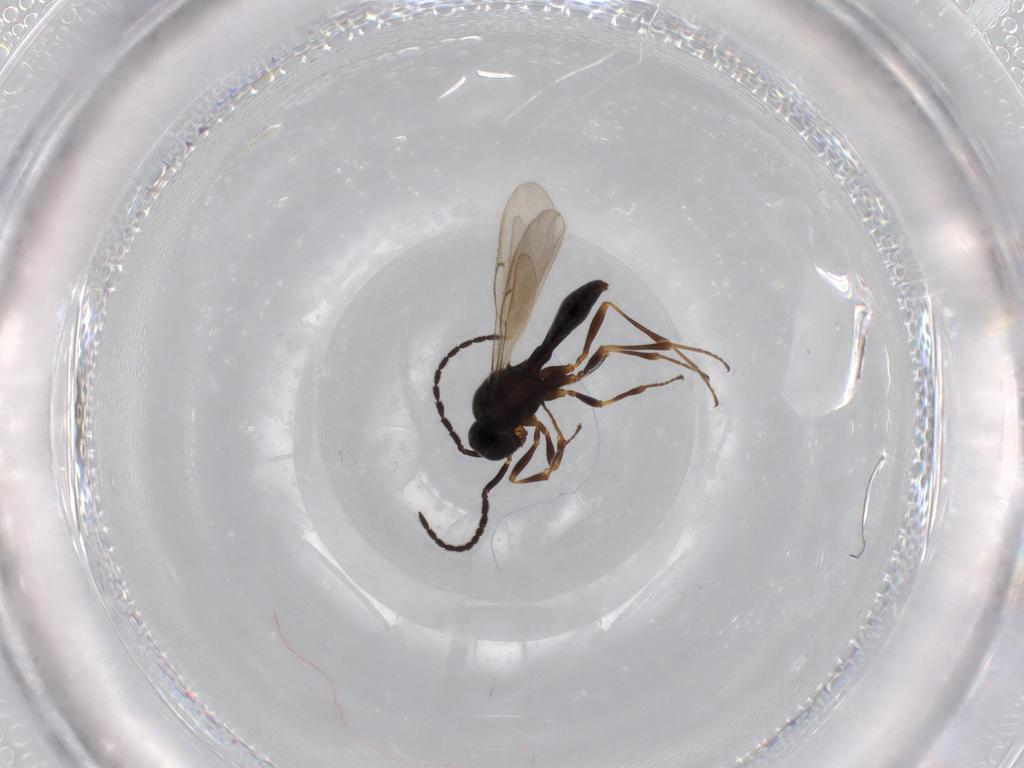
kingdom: Animalia
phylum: Arthropoda
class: Insecta
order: Hymenoptera
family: Scelionidae
